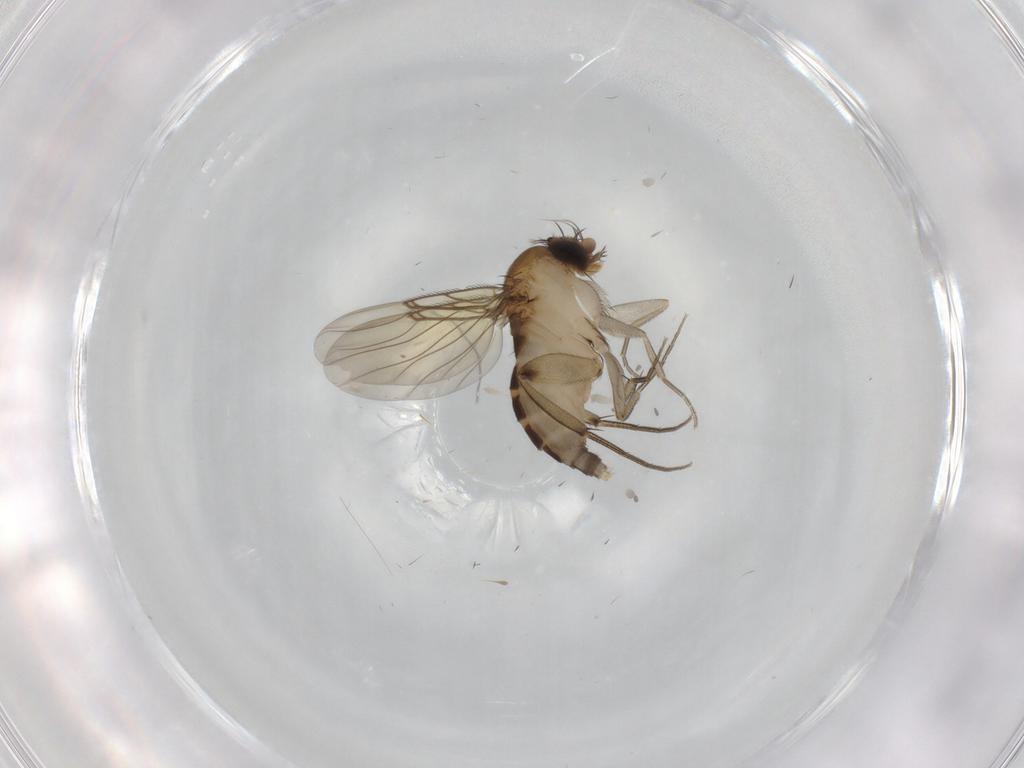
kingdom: Animalia
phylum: Arthropoda
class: Insecta
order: Diptera
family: Phoridae
